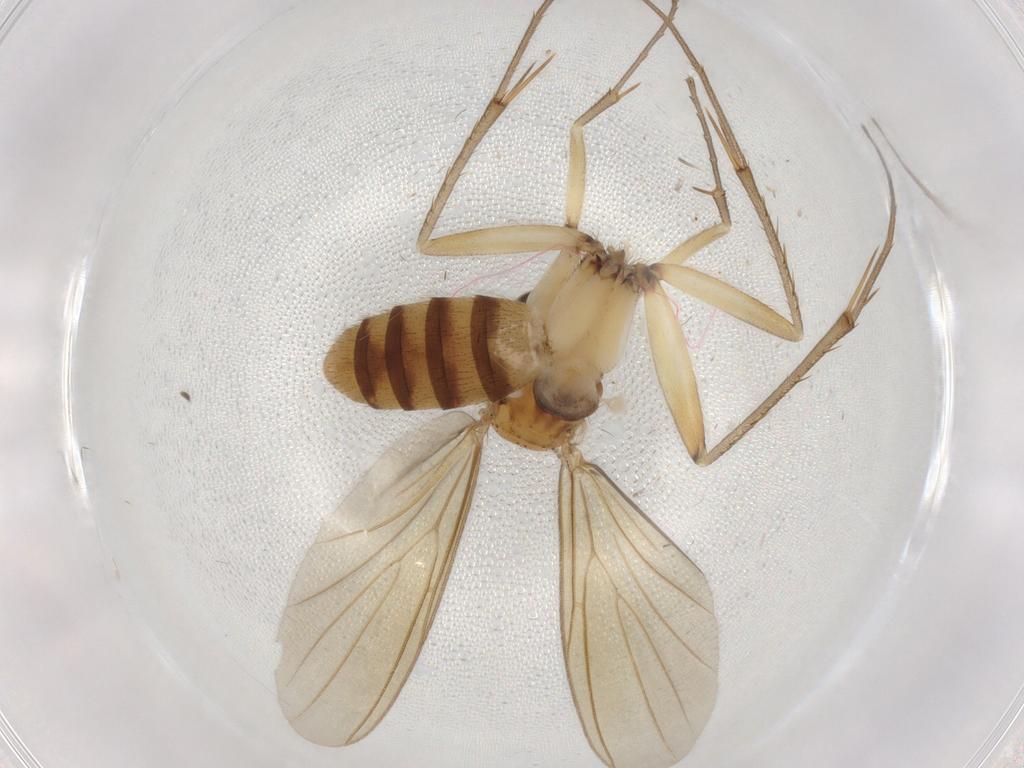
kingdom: Animalia
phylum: Arthropoda
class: Insecta
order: Diptera
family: Mycetophilidae
